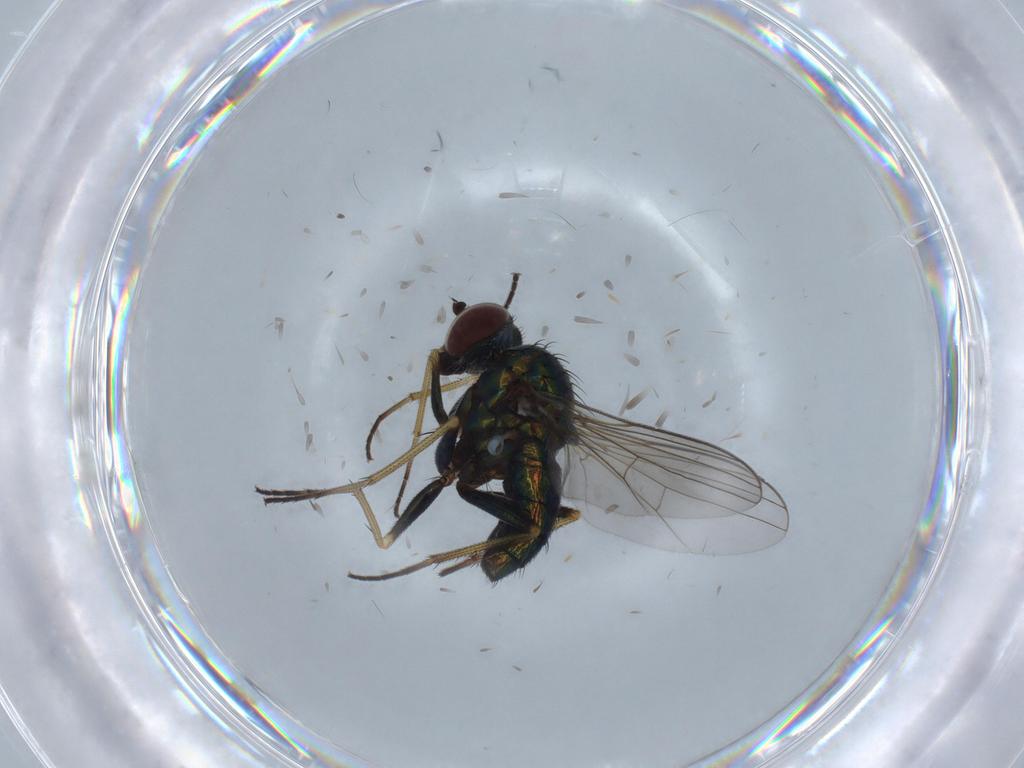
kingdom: Animalia
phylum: Arthropoda
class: Insecta
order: Diptera
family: Dolichopodidae
